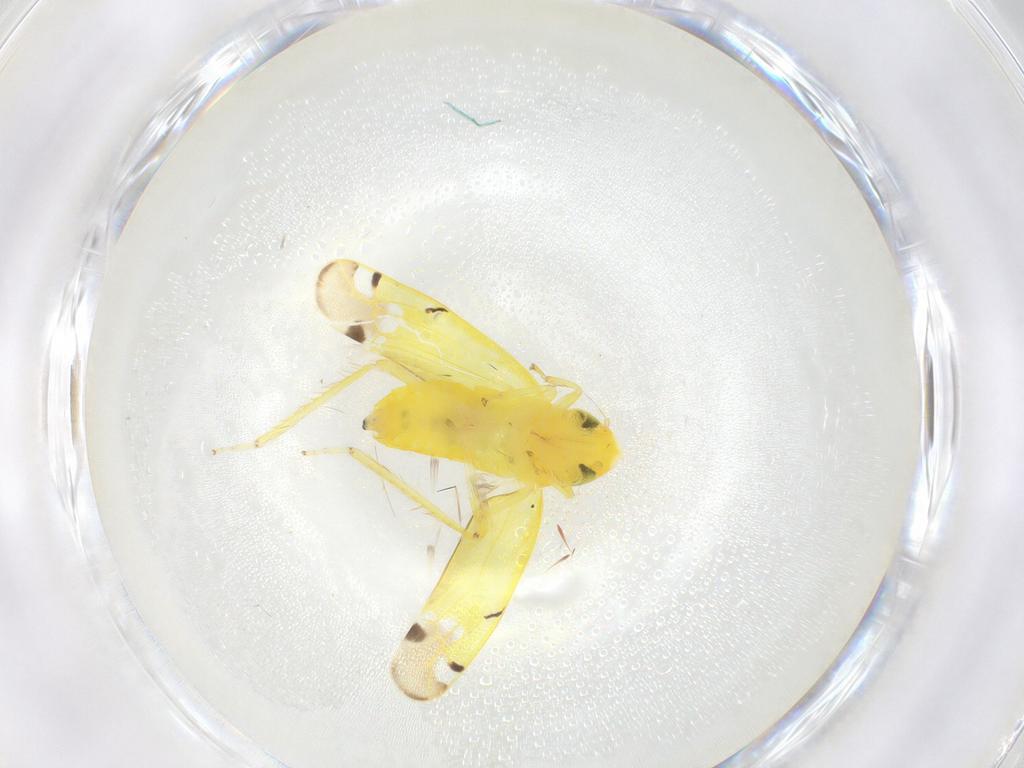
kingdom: Animalia
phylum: Arthropoda
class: Insecta
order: Hemiptera
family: Cicadellidae
